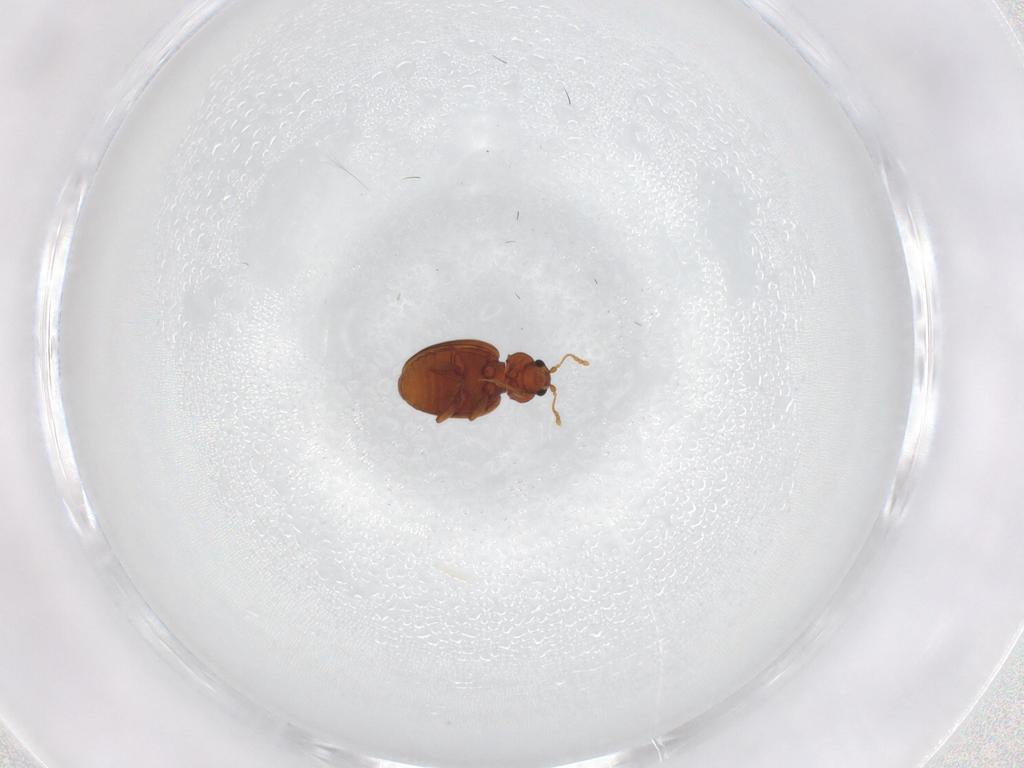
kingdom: Animalia
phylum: Arthropoda
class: Insecta
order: Coleoptera
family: Latridiidae
